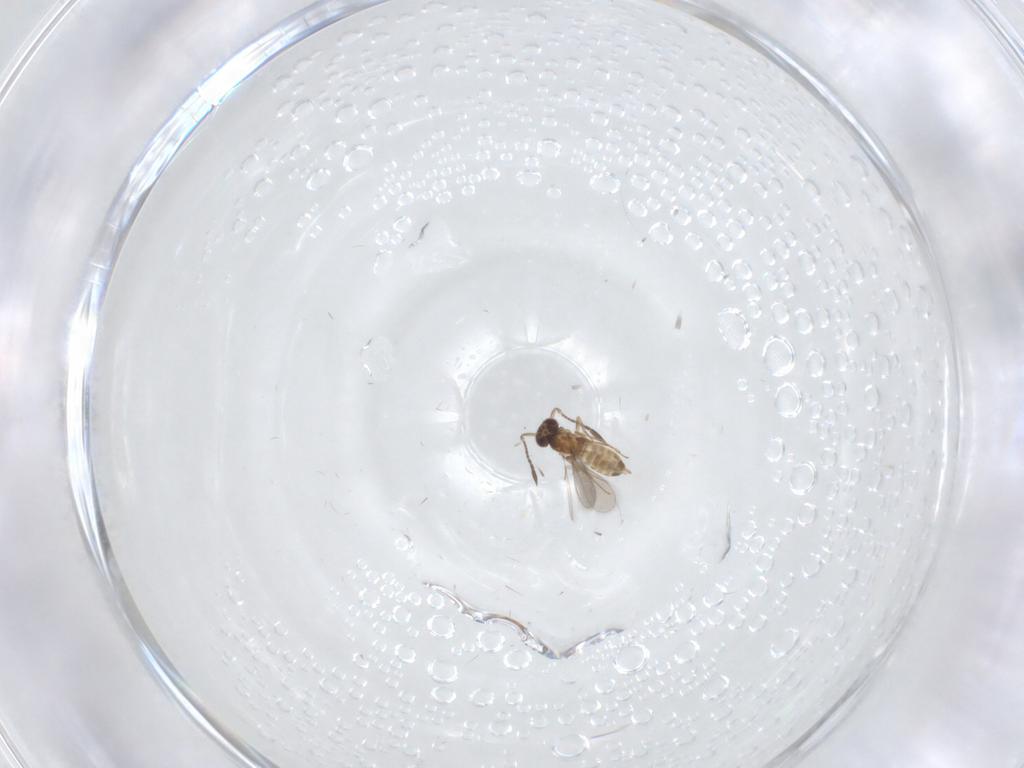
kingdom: Animalia
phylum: Arthropoda
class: Insecta
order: Hymenoptera
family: Mymaridae
